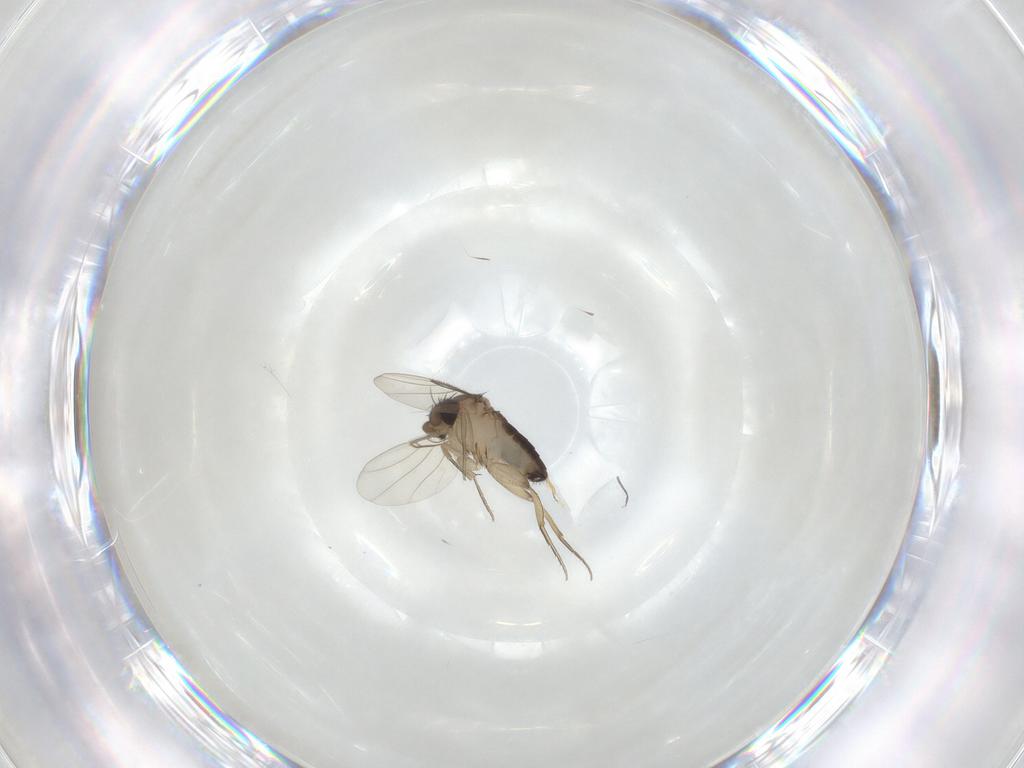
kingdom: Animalia
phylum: Arthropoda
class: Insecta
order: Diptera
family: Phoridae
